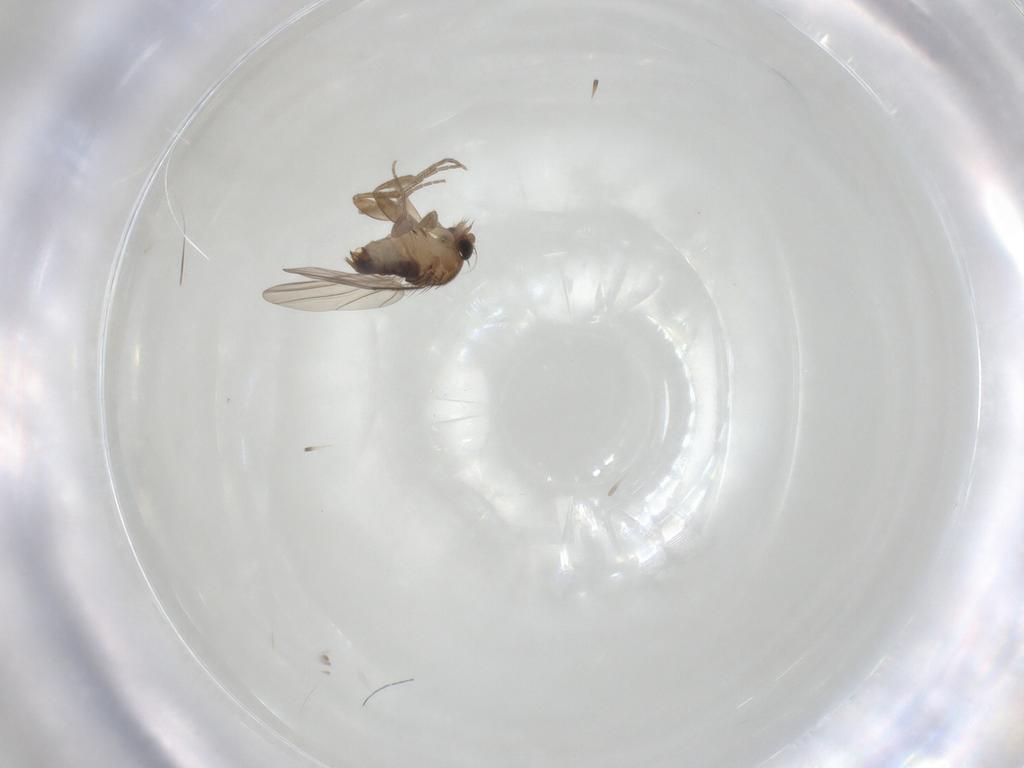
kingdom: Animalia
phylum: Arthropoda
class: Insecta
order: Diptera
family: Phoridae
